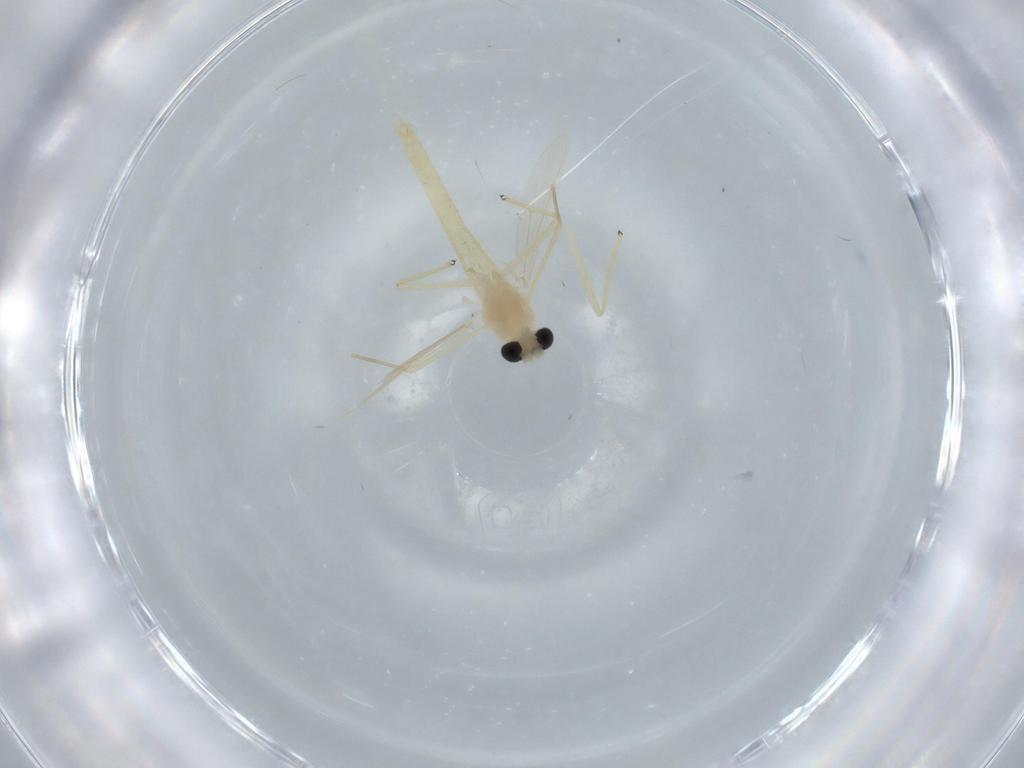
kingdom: Animalia
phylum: Arthropoda
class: Insecta
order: Diptera
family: Chironomidae
